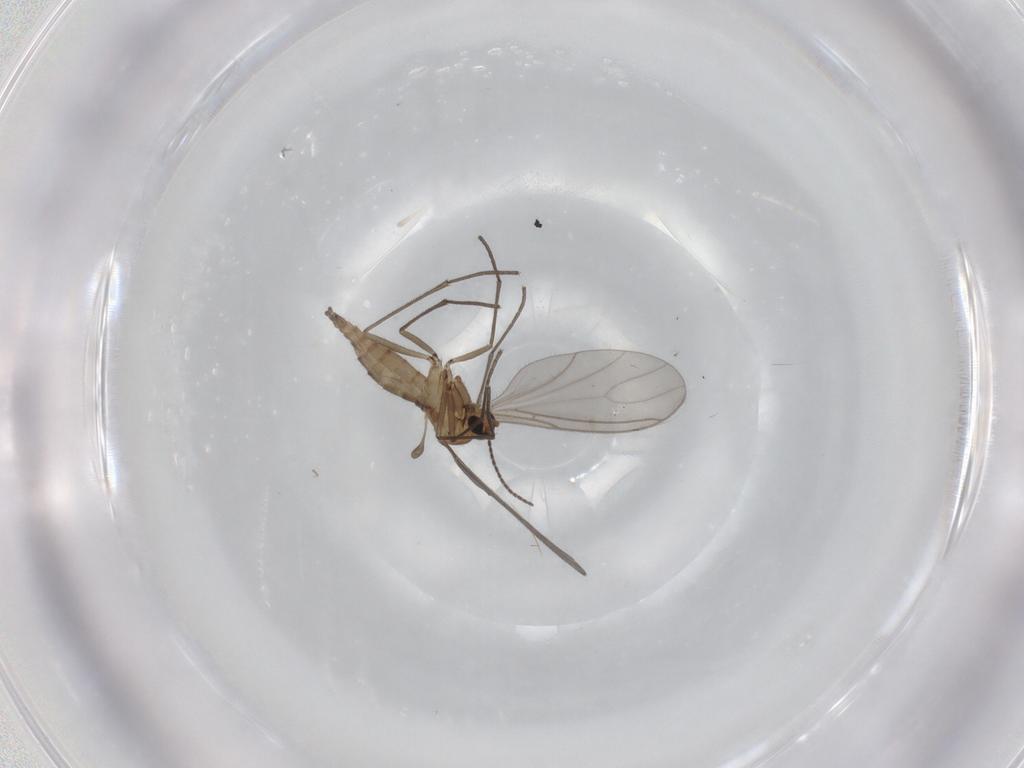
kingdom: Animalia
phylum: Arthropoda
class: Insecta
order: Diptera
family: Sciaridae
